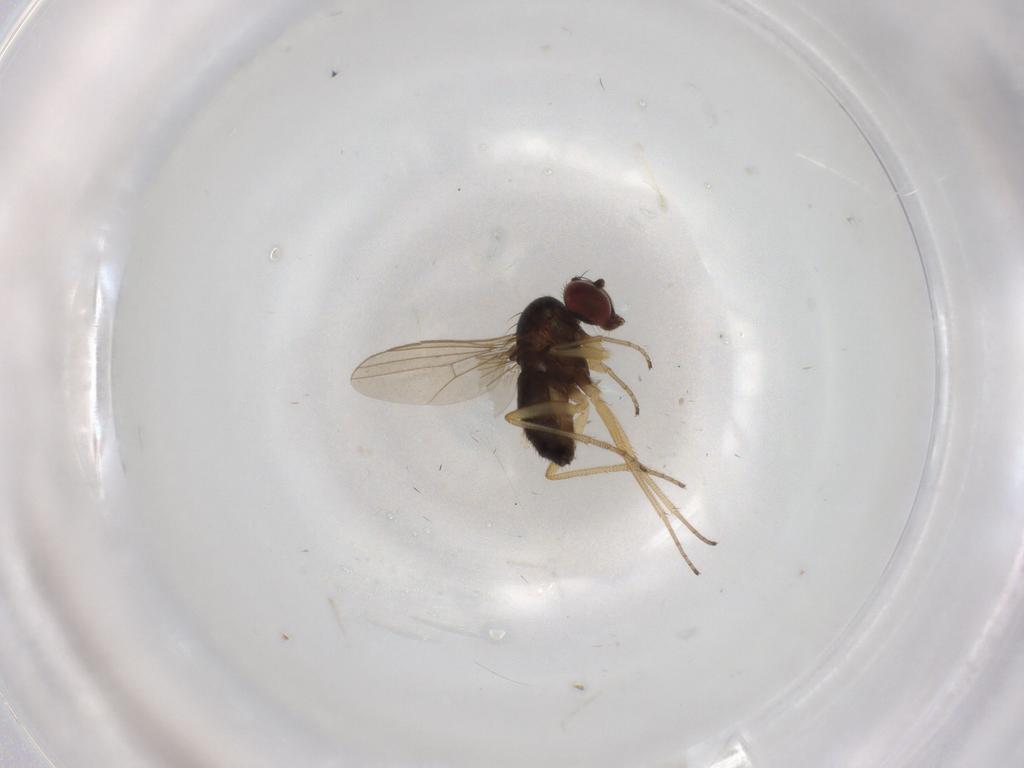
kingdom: Animalia
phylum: Arthropoda
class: Insecta
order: Diptera
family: Dolichopodidae
